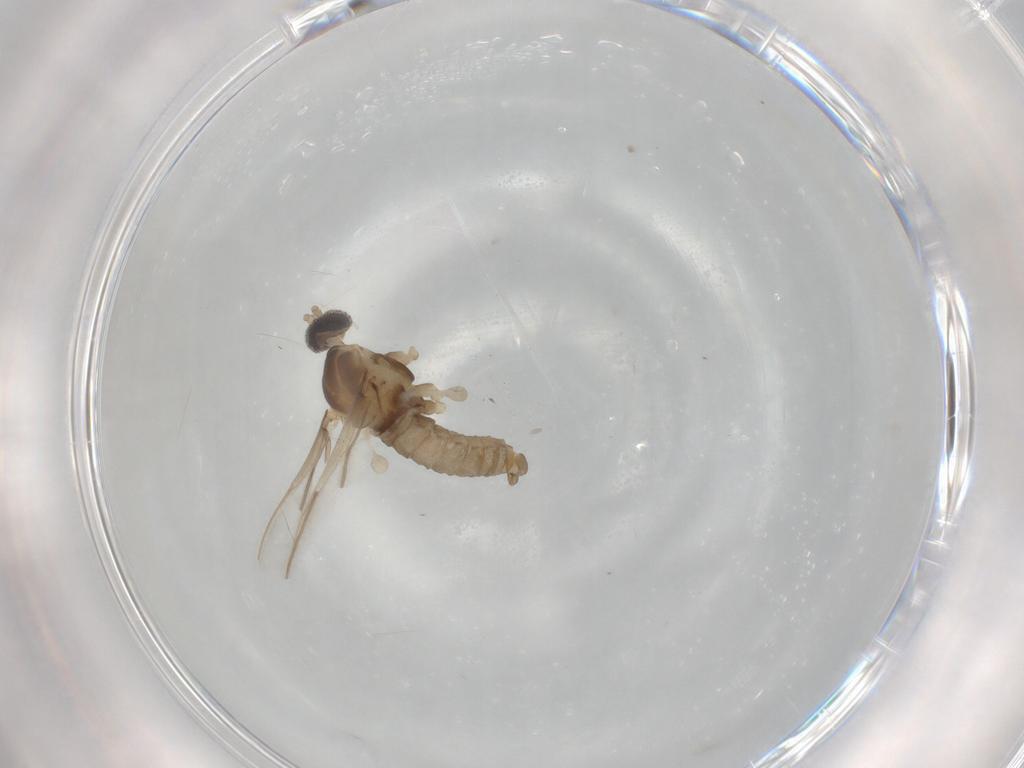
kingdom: Animalia
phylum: Arthropoda
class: Insecta
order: Diptera
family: Cecidomyiidae
